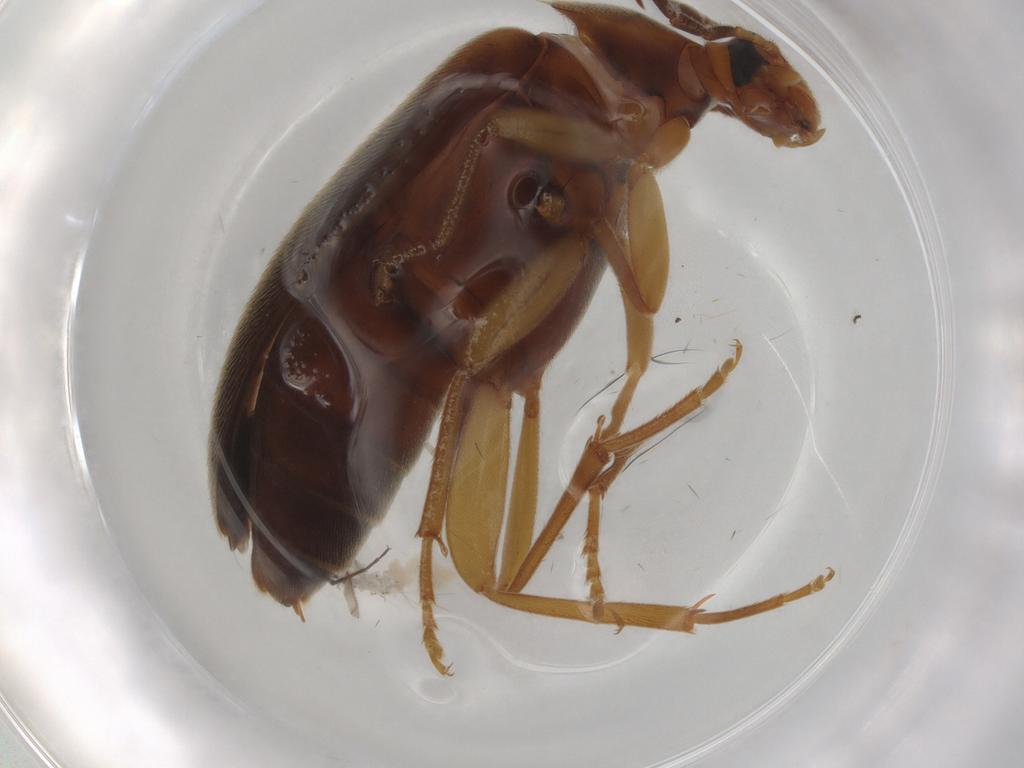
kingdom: Animalia
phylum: Arthropoda
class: Insecta
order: Coleoptera
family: Scraptiidae
